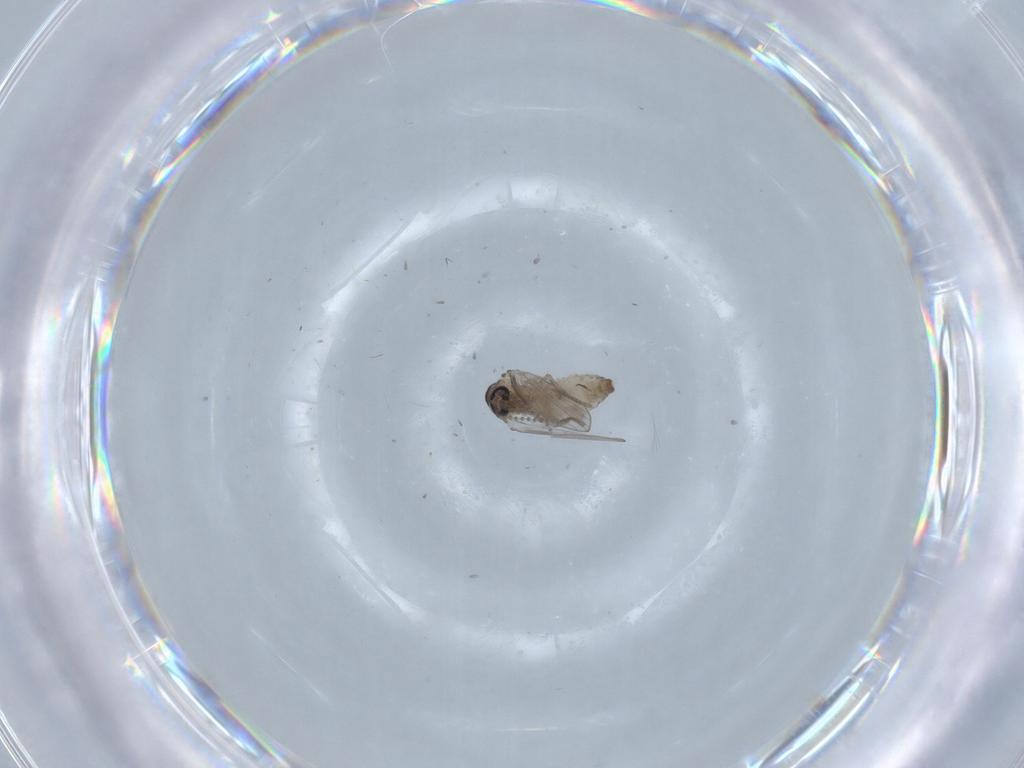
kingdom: Animalia
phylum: Arthropoda
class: Insecta
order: Diptera
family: Psychodidae
